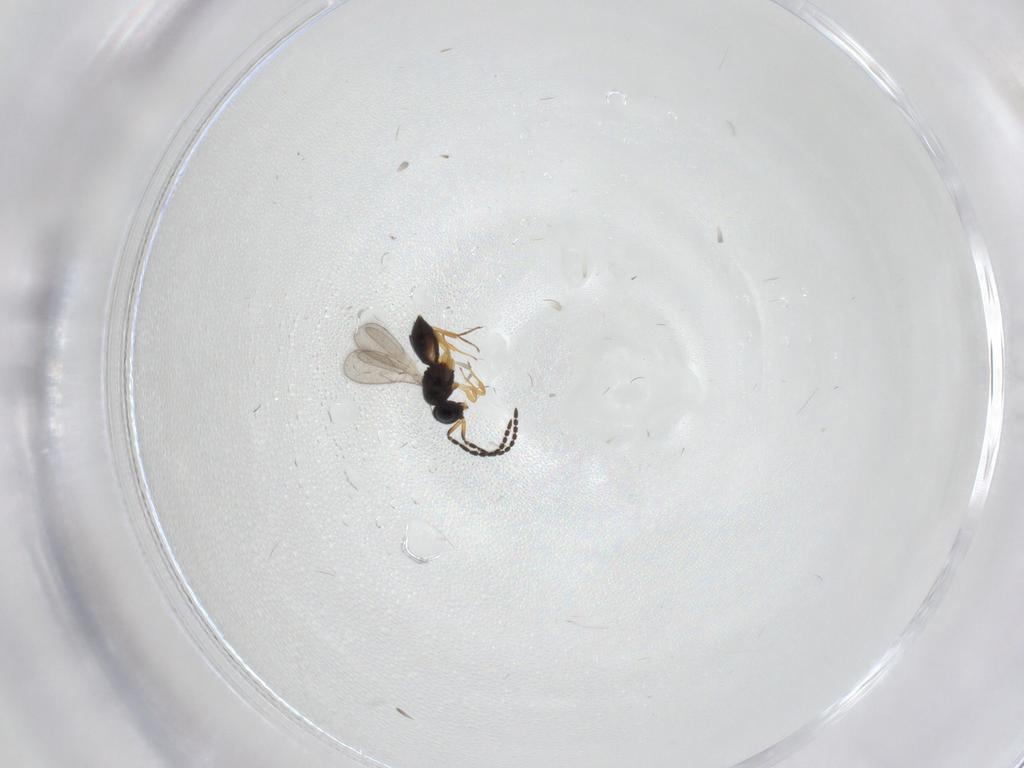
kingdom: Animalia
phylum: Arthropoda
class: Insecta
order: Hymenoptera
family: Scelionidae
